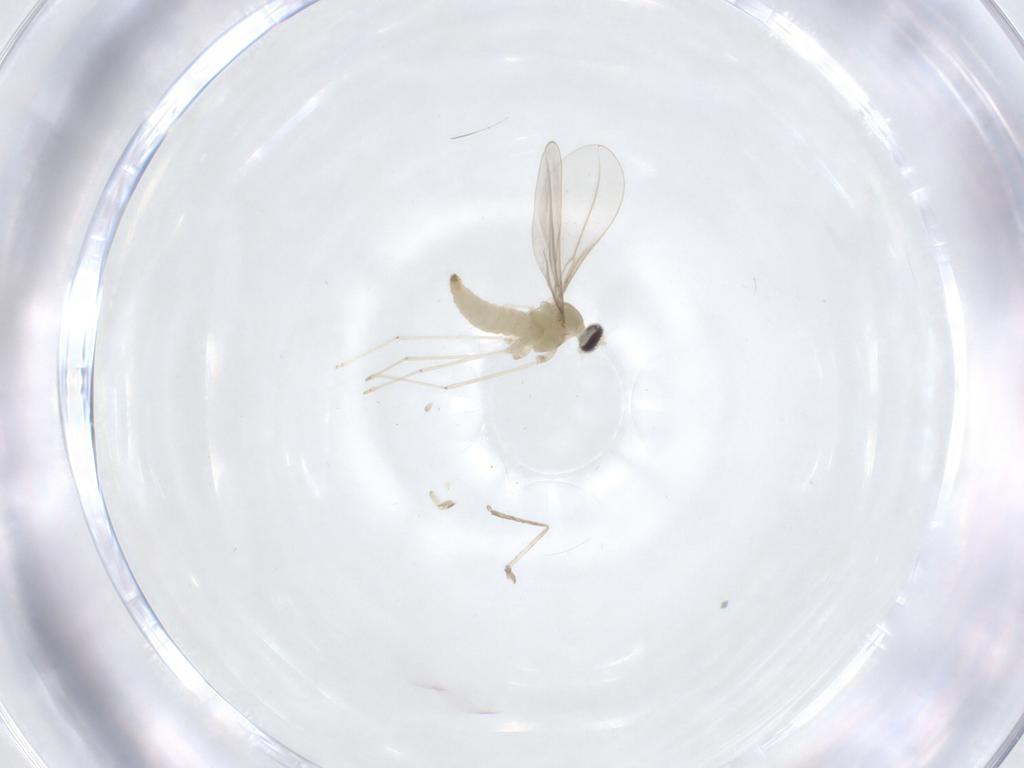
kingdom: Animalia
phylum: Arthropoda
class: Insecta
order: Diptera
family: Cecidomyiidae
